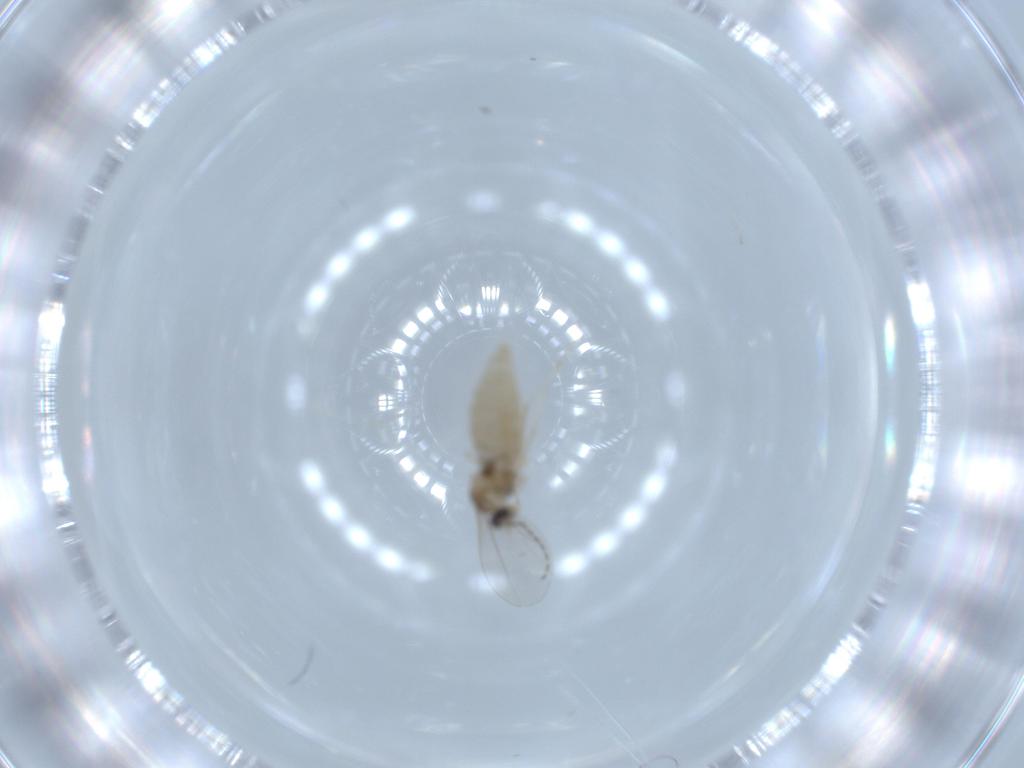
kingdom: Animalia
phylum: Arthropoda
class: Insecta
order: Diptera
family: Cecidomyiidae
